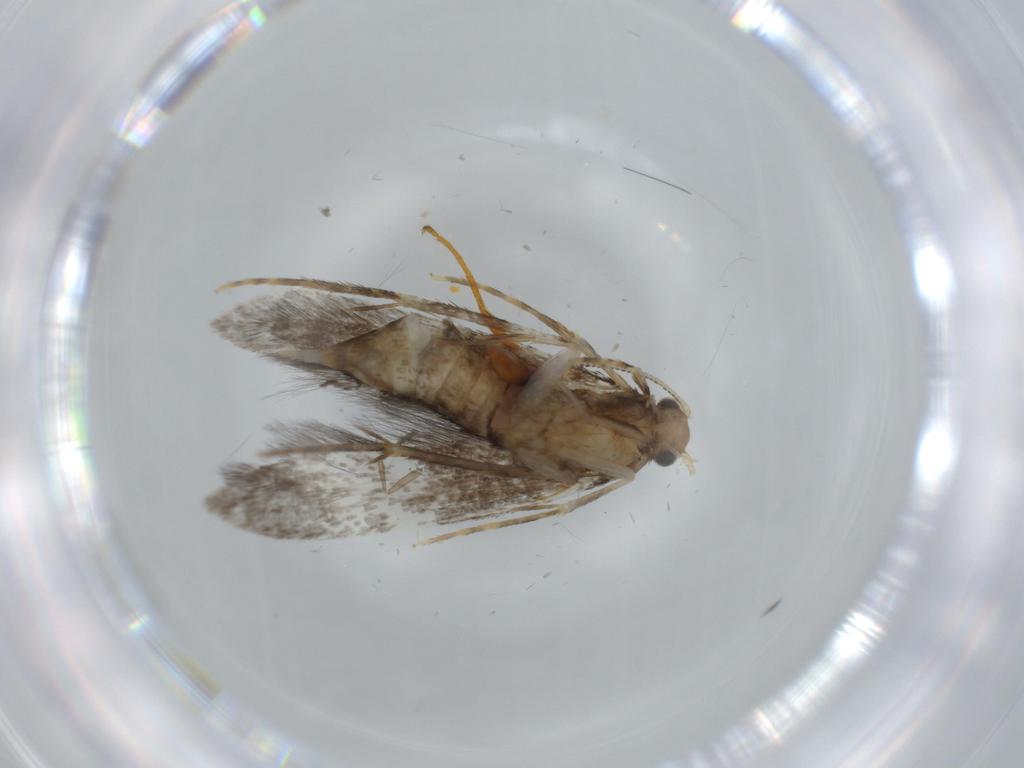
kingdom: Animalia
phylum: Arthropoda
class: Insecta
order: Lepidoptera
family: Tineidae
